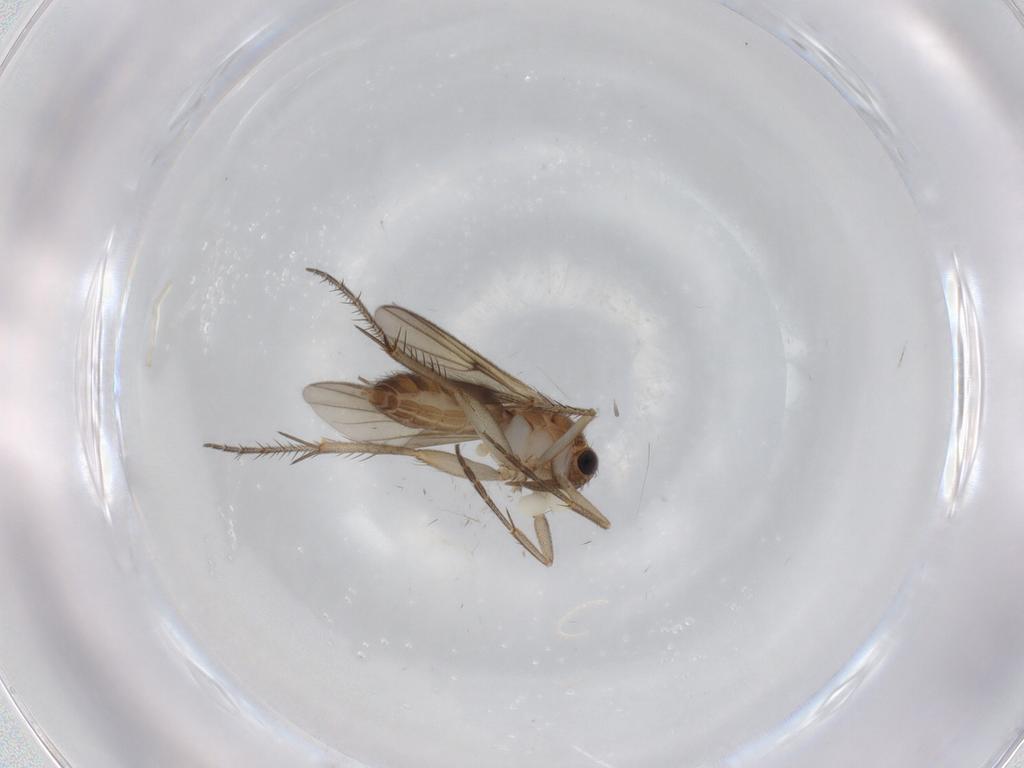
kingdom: Animalia
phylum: Arthropoda
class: Insecta
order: Diptera
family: Mycetophilidae
